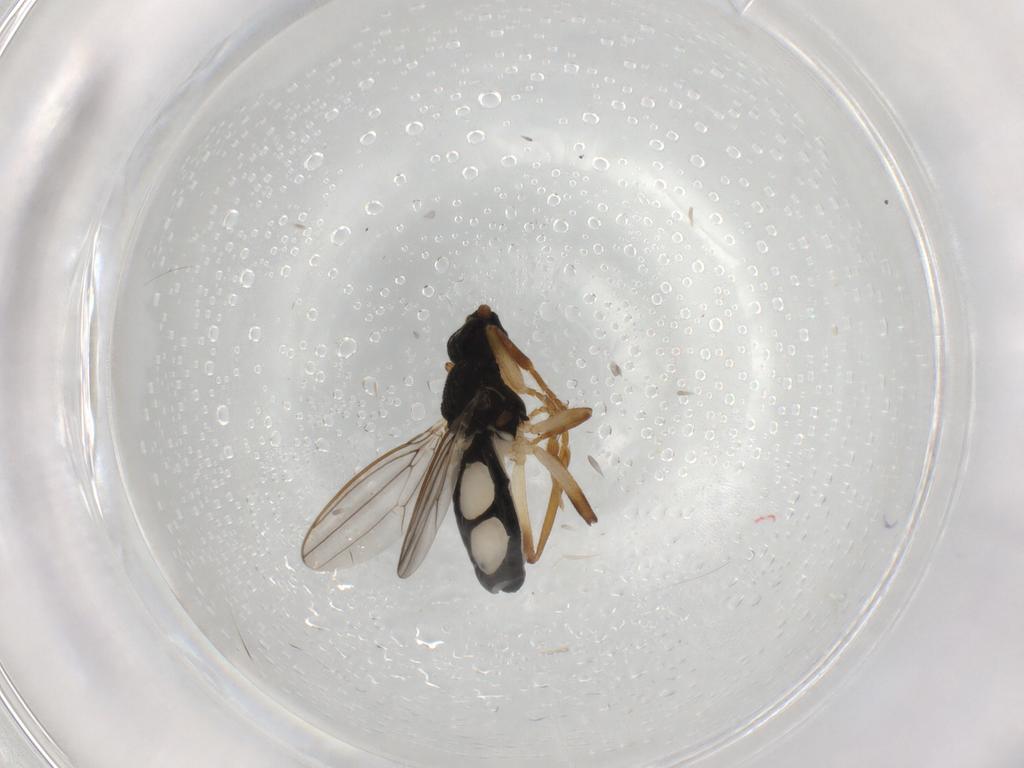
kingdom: Animalia
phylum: Arthropoda
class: Insecta
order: Diptera
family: Sphaeroceridae
